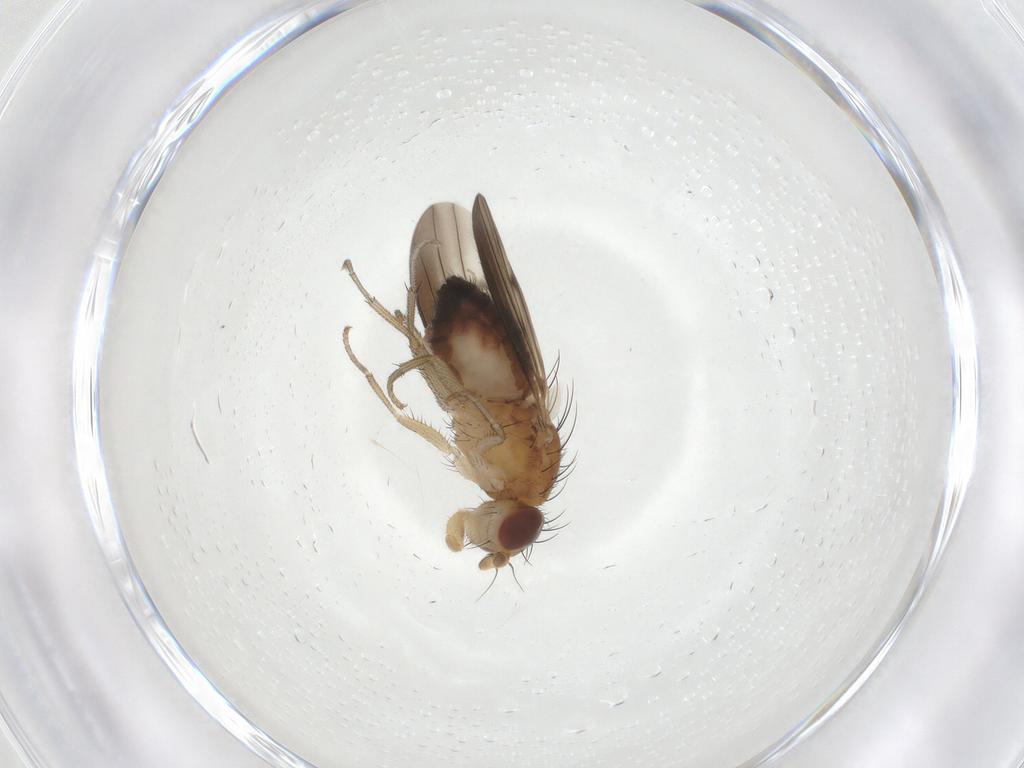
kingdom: Animalia
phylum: Arthropoda
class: Insecta
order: Diptera
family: Heleomyzidae
